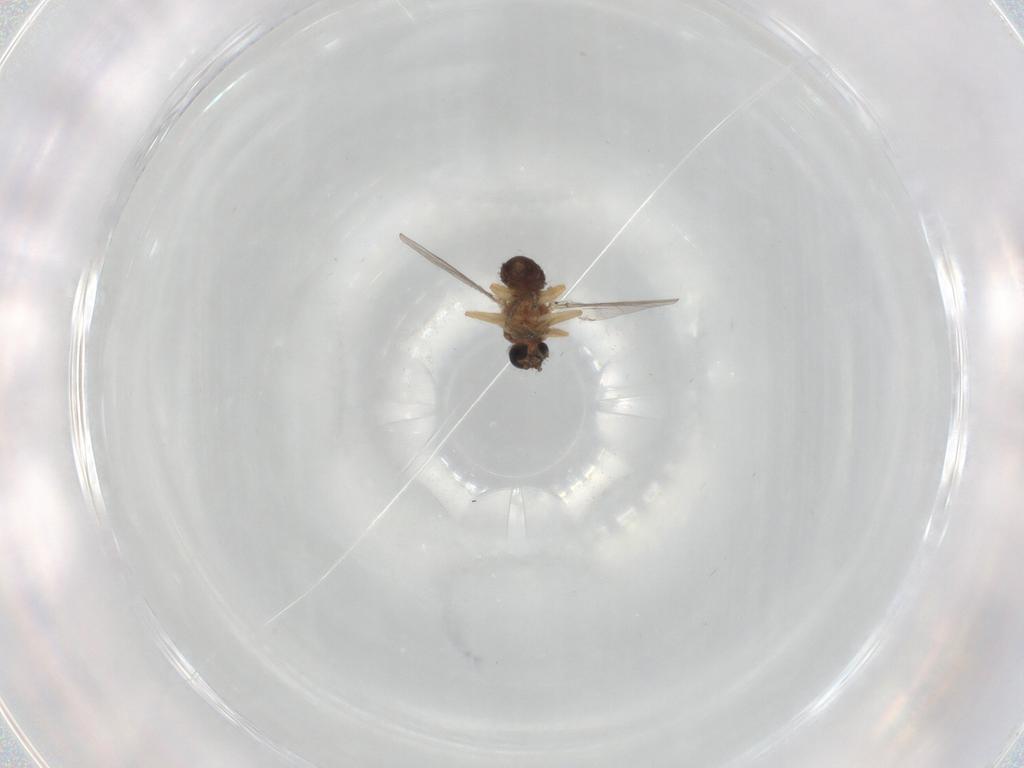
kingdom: Animalia
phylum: Arthropoda
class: Insecta
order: Diptera
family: Ceratopogonidae
